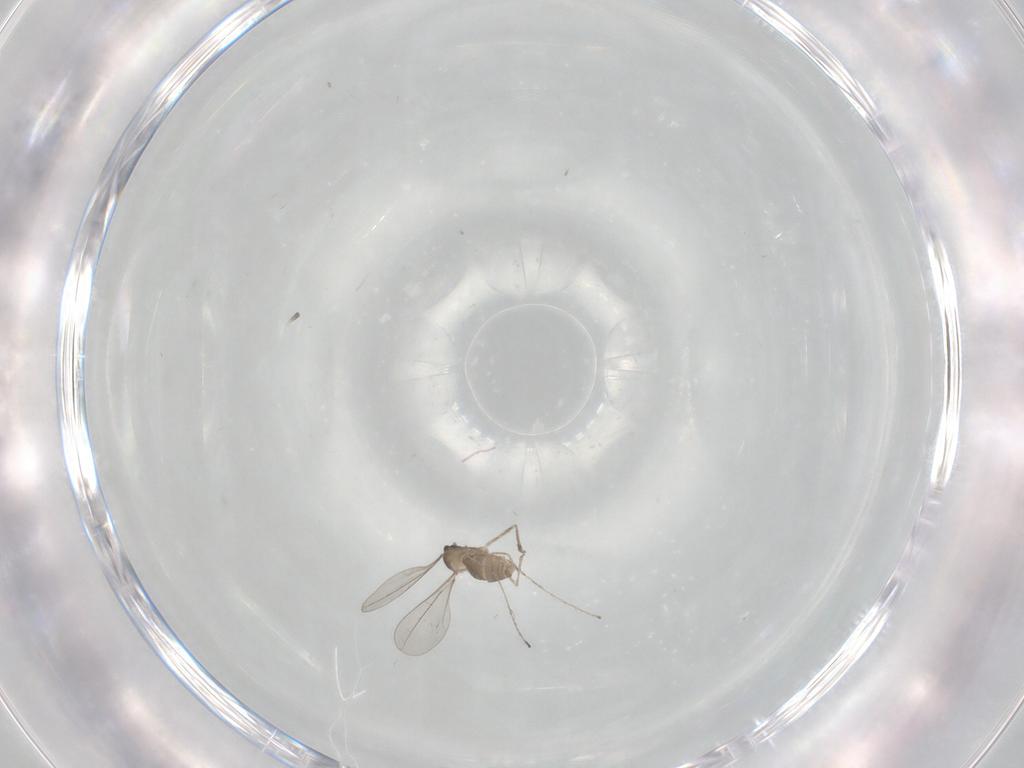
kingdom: Animalia
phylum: Arthropoda
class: Insecta
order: Diptera
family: Cecidomyiidae
